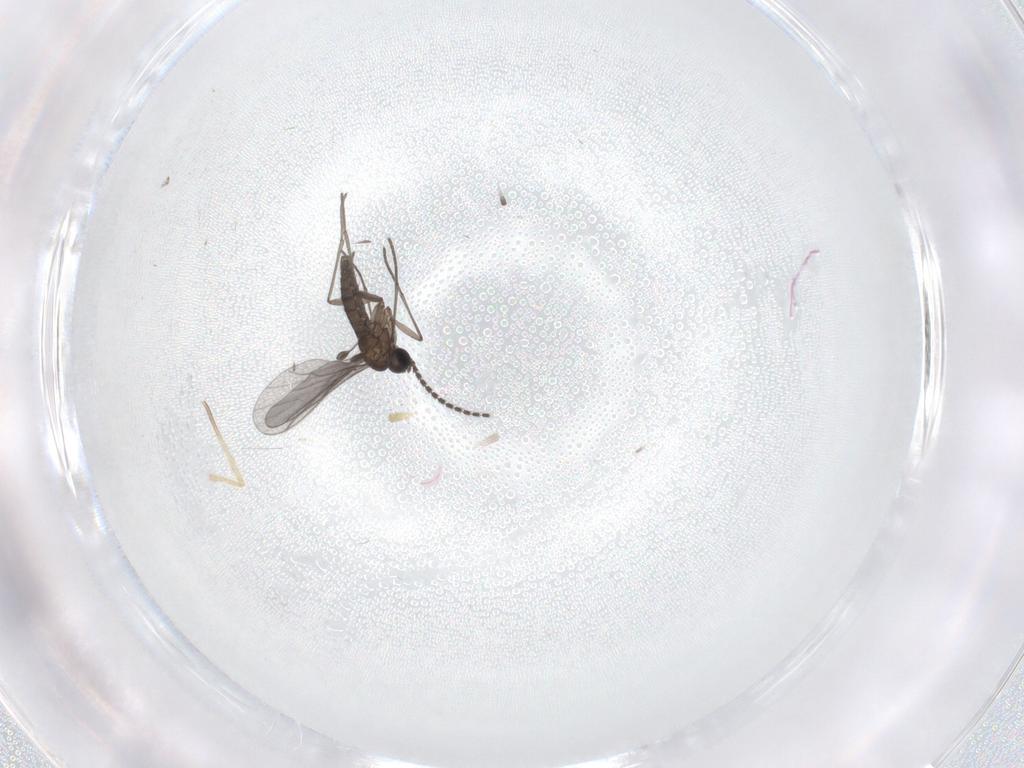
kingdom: Animalia
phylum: Arthropoda
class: Insecta
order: Diptera
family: Chironomidae
